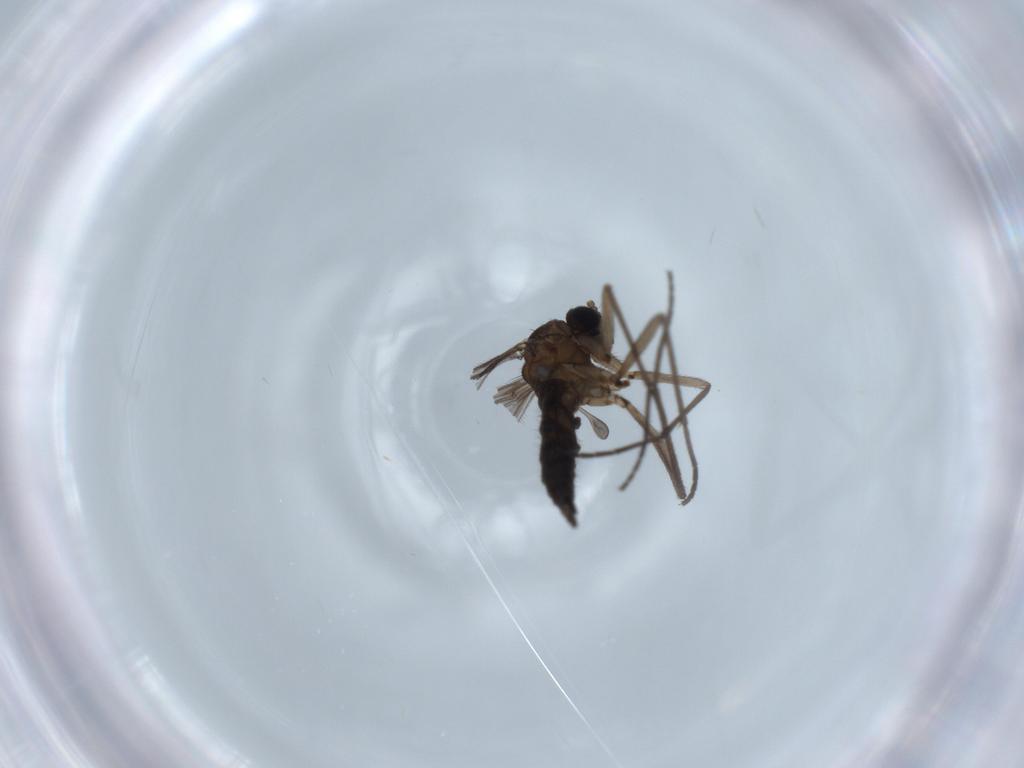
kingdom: Animalia
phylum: Arthropoda
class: Insecta
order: Diptera
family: Sciaridae
